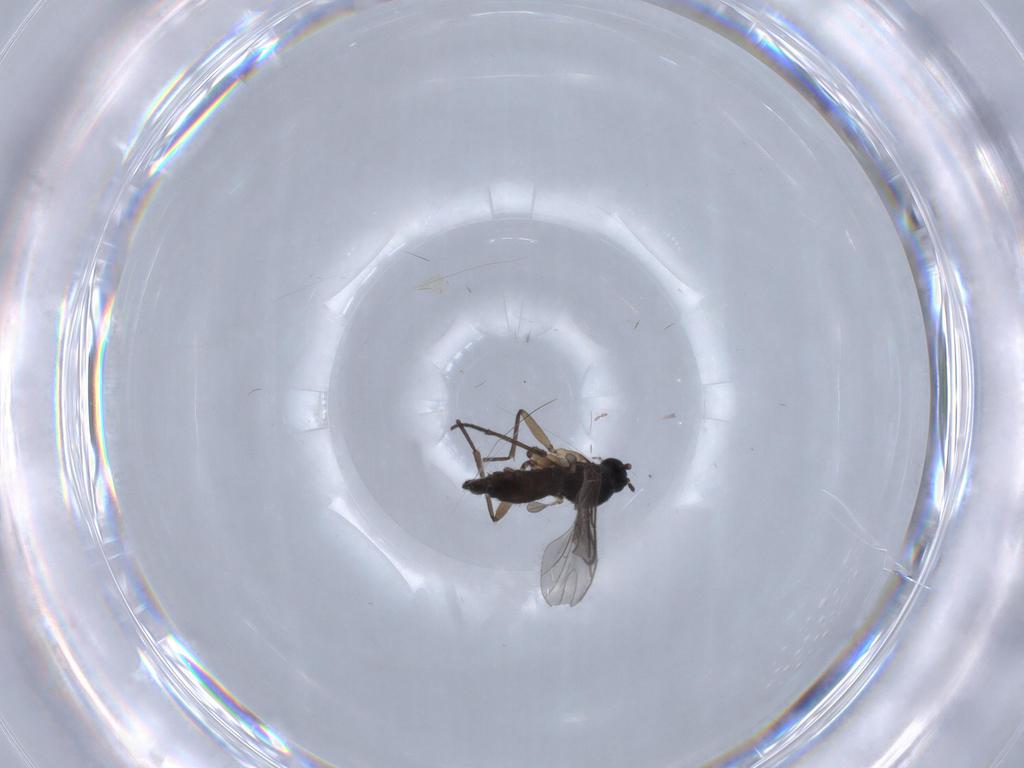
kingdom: Animalia
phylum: Arthropoda
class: Insecta
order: Diptera
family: Sciaridae
